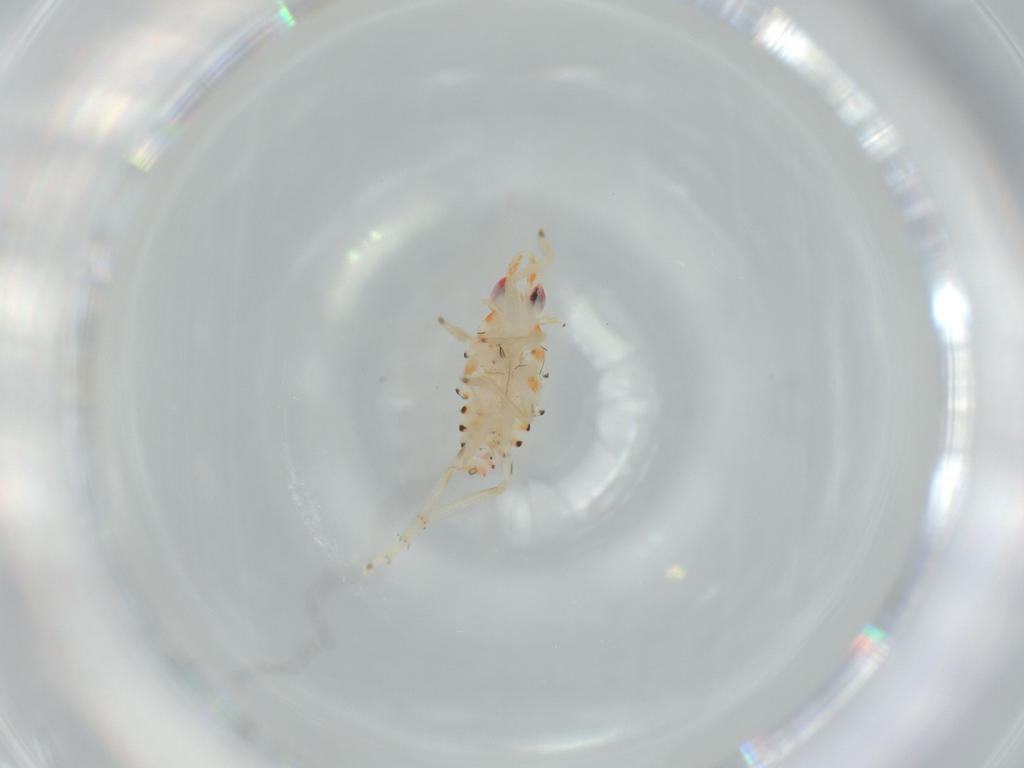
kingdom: Animalia
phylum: Arthropoda
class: Insecta
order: Hemiptera
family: Tropiduchidae
